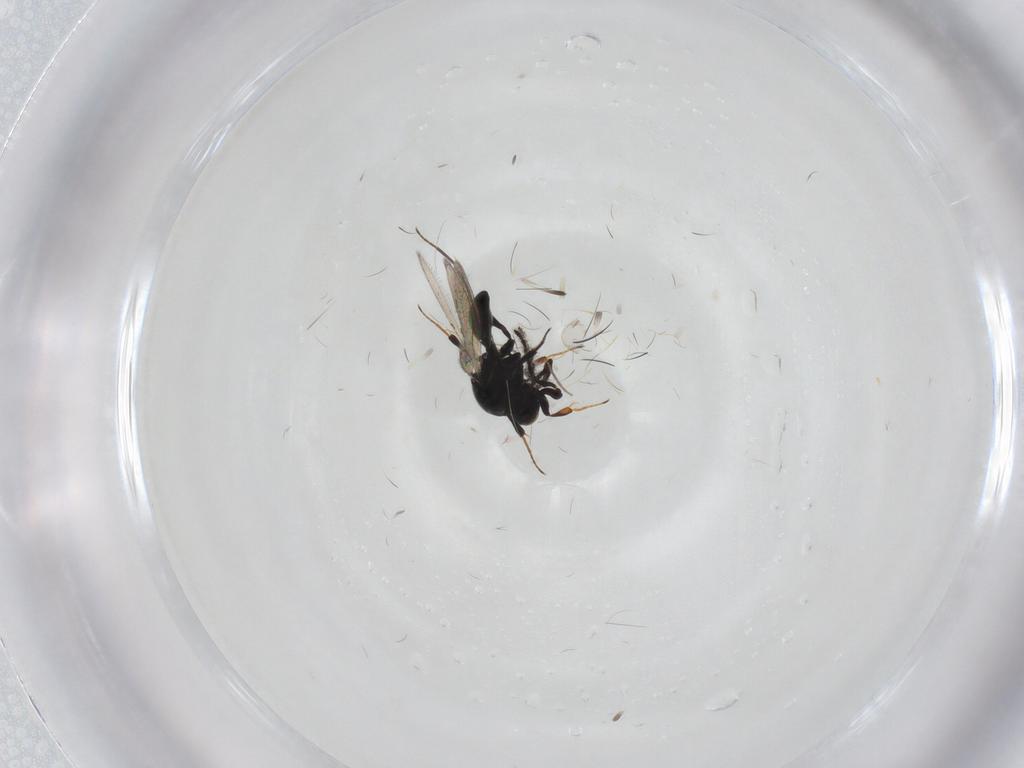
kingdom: Animalia
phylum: Arthropoda
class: Insecta
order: Hymenoptera
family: Platygastridae
